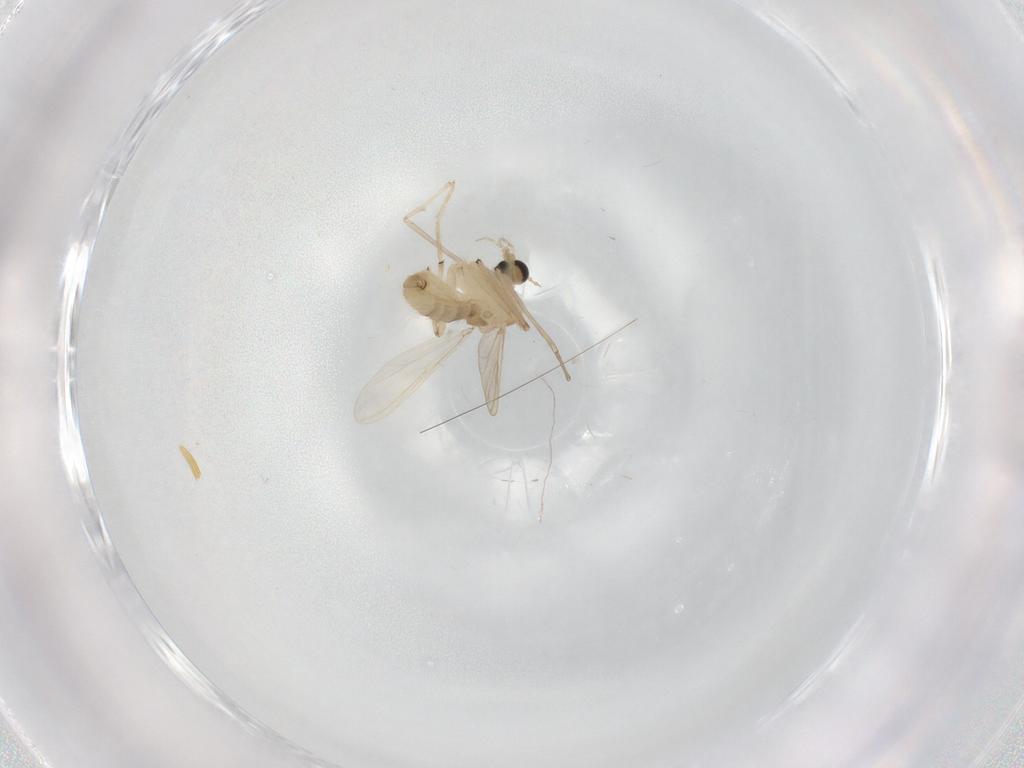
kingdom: Animalia
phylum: Arthropoda
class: Insecta
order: Diptera
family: Chironomidae
